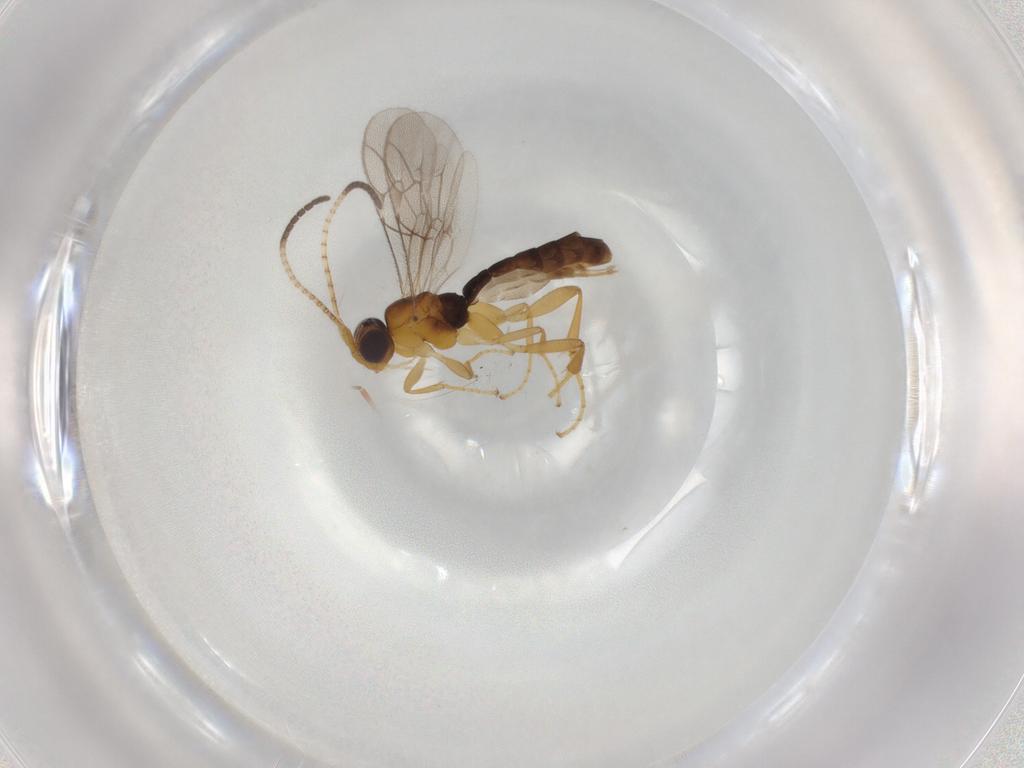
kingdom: Animalia
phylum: Arthropoda
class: Insecta
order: Hymenoptera
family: Ichneumonidae
